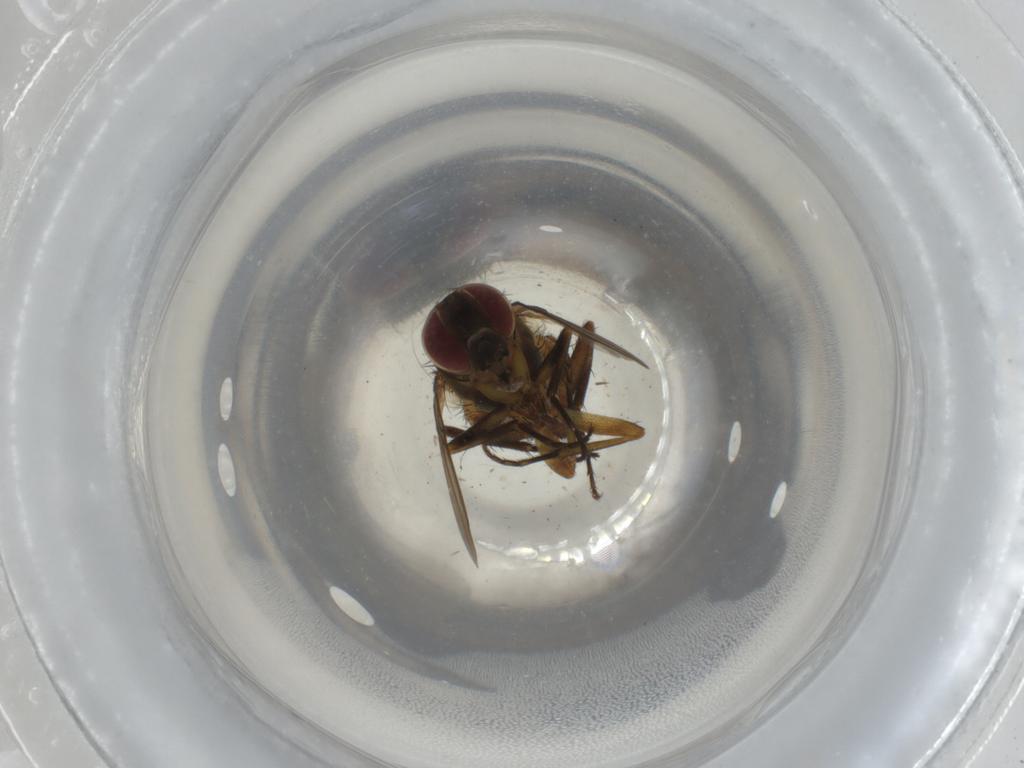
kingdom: Animalia
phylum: Arthropoda
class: Insecta
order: Diptera
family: Muscidae
